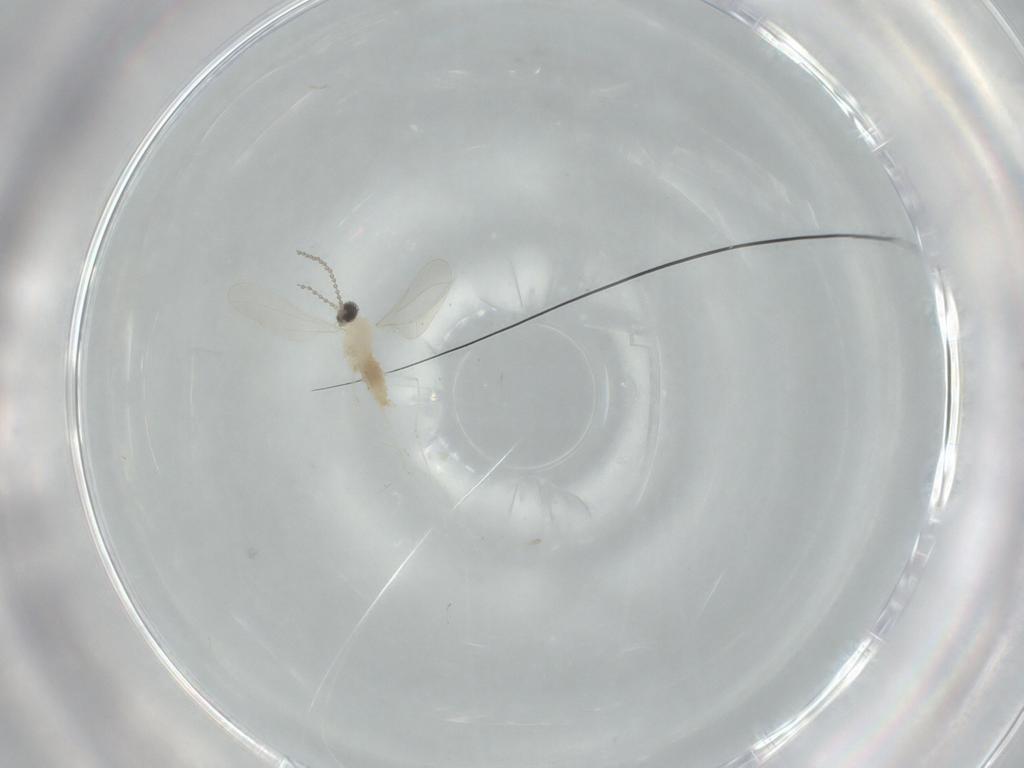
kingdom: Animalia
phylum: Arthropoda
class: Insecta
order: Diptera
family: Cecidomyiidae
